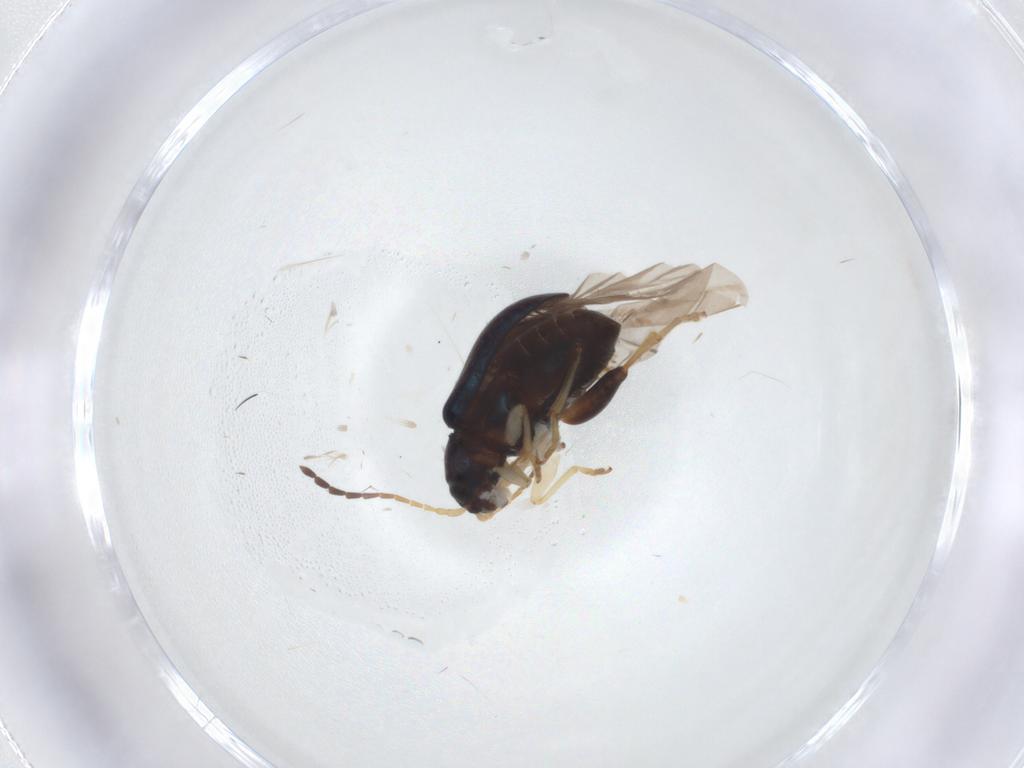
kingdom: Animalia
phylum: Arthropoda
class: Insecta
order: Coleoptera
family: Chrysomelidae
